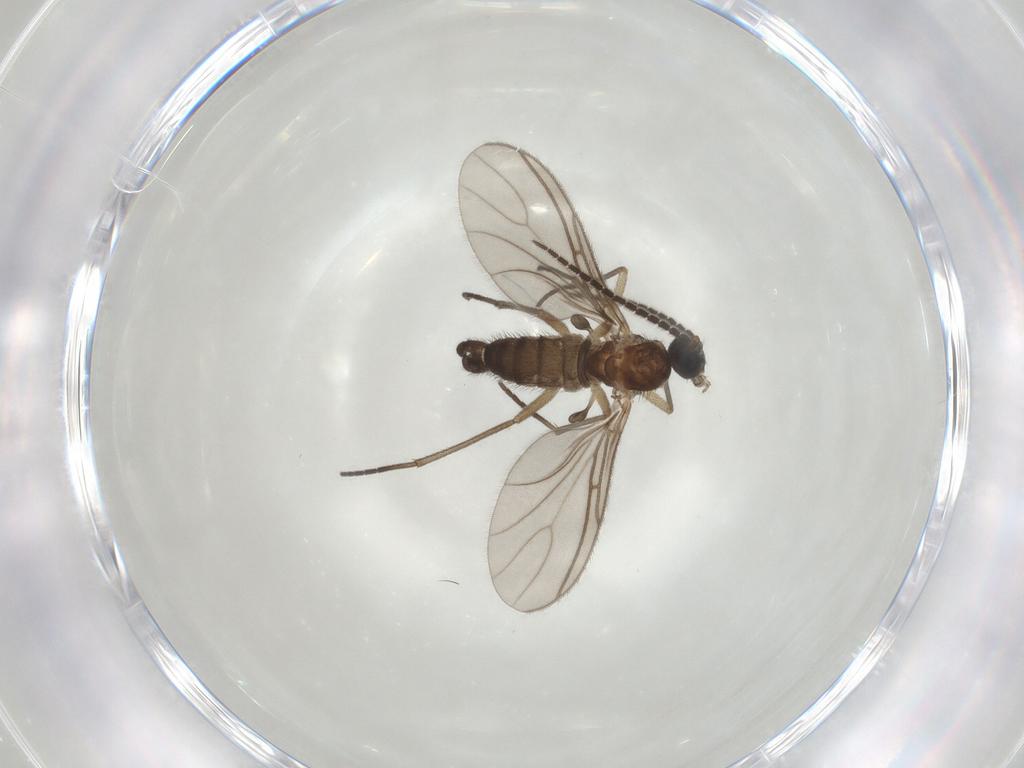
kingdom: Animalia
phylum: Arthropoda
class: Insecta
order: Diptera
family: Sciaridae
